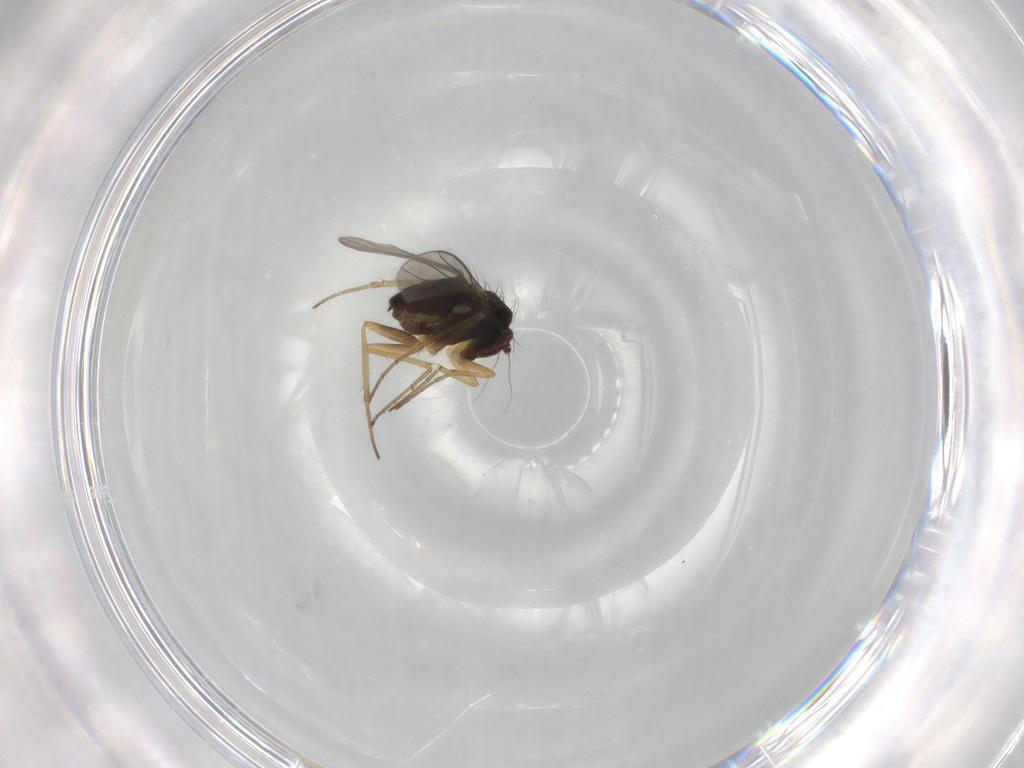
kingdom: Animalia
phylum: Arthropoda
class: Insecta
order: Diptera
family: Dolichopodidae
